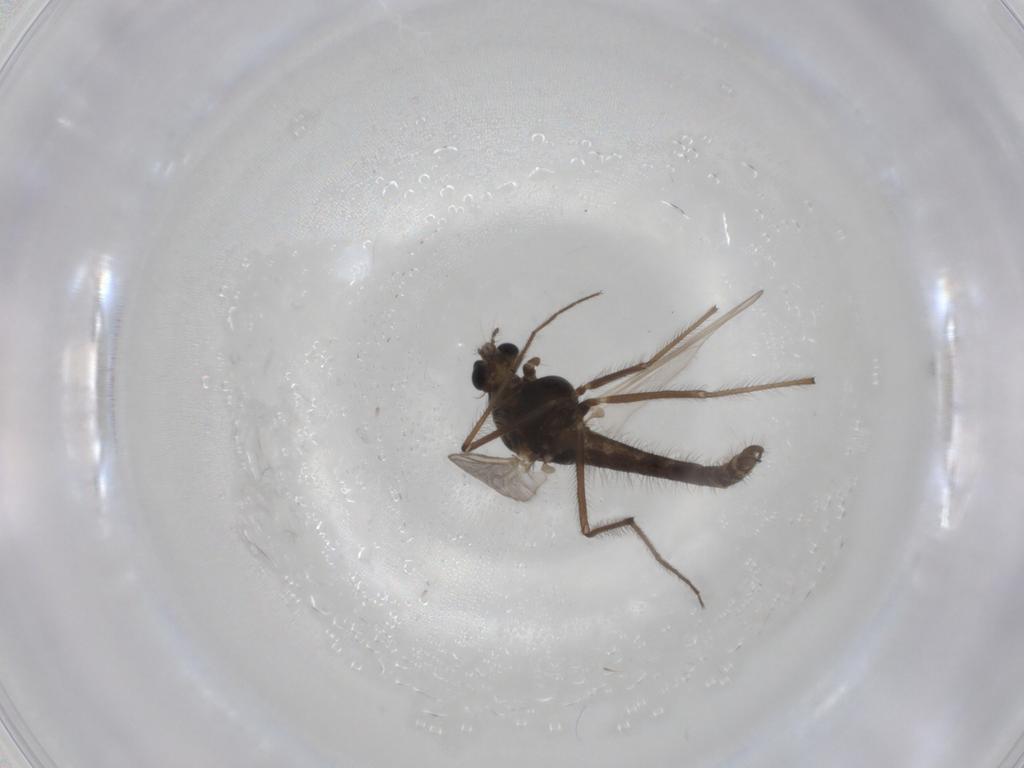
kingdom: Animalia
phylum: Arthropoda
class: Insecta
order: Diptera
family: Chironomidae
